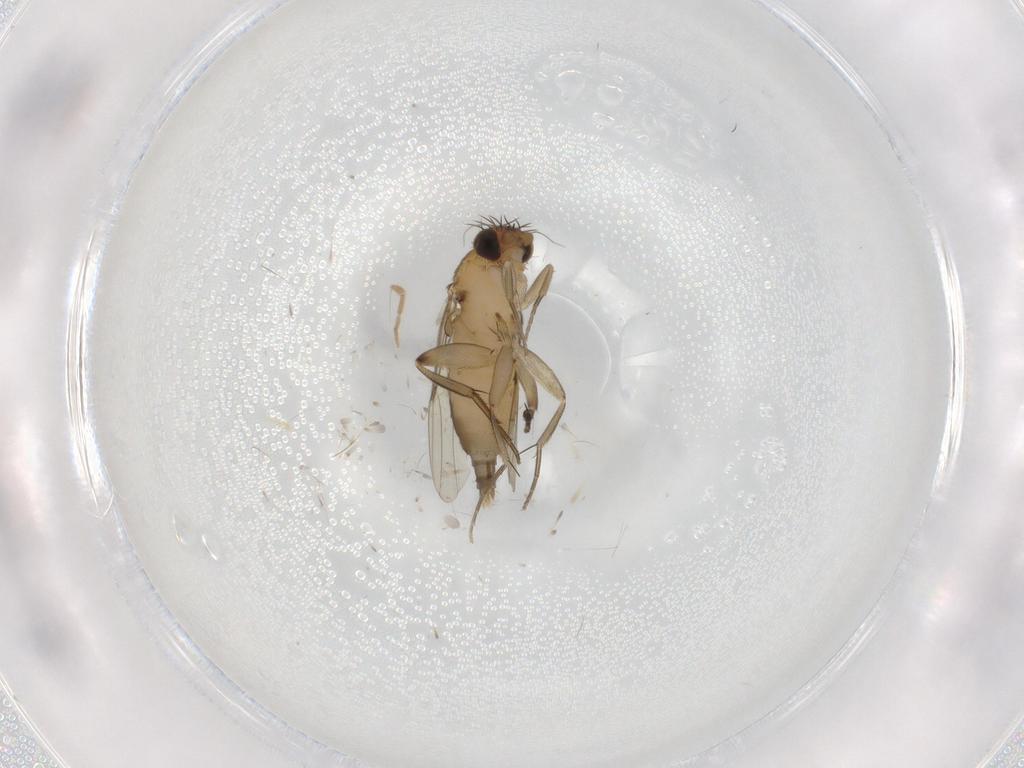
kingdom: Animalia
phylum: Arthropoda
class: Insecta
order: Diptera
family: Phoridae
